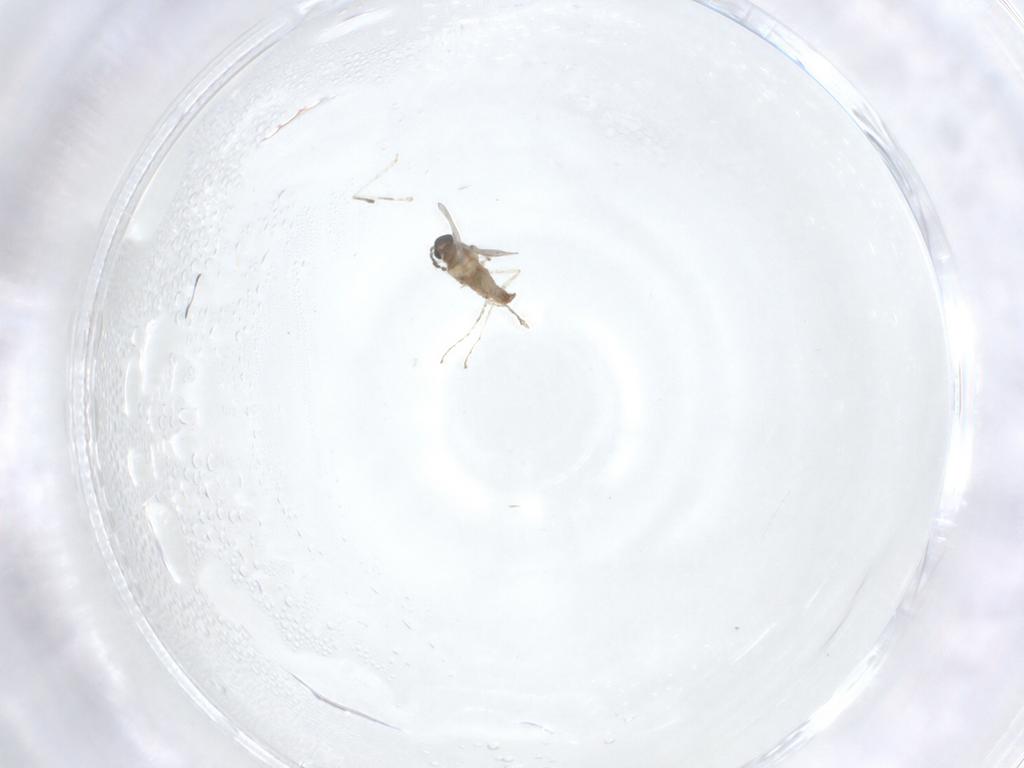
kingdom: Animalia
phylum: Arthropoda
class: Insecta
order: Diptera
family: Cecidomyiidae
